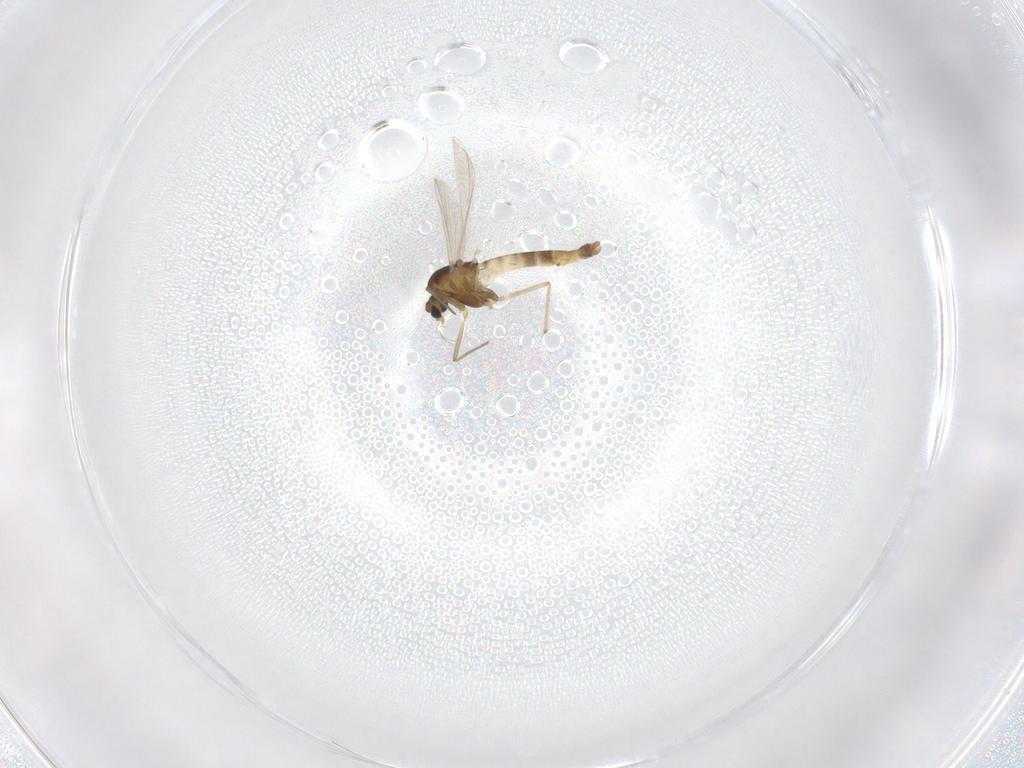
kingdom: Animalia
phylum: Arthropoda
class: Insecta
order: Diptera
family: Chironomidae
